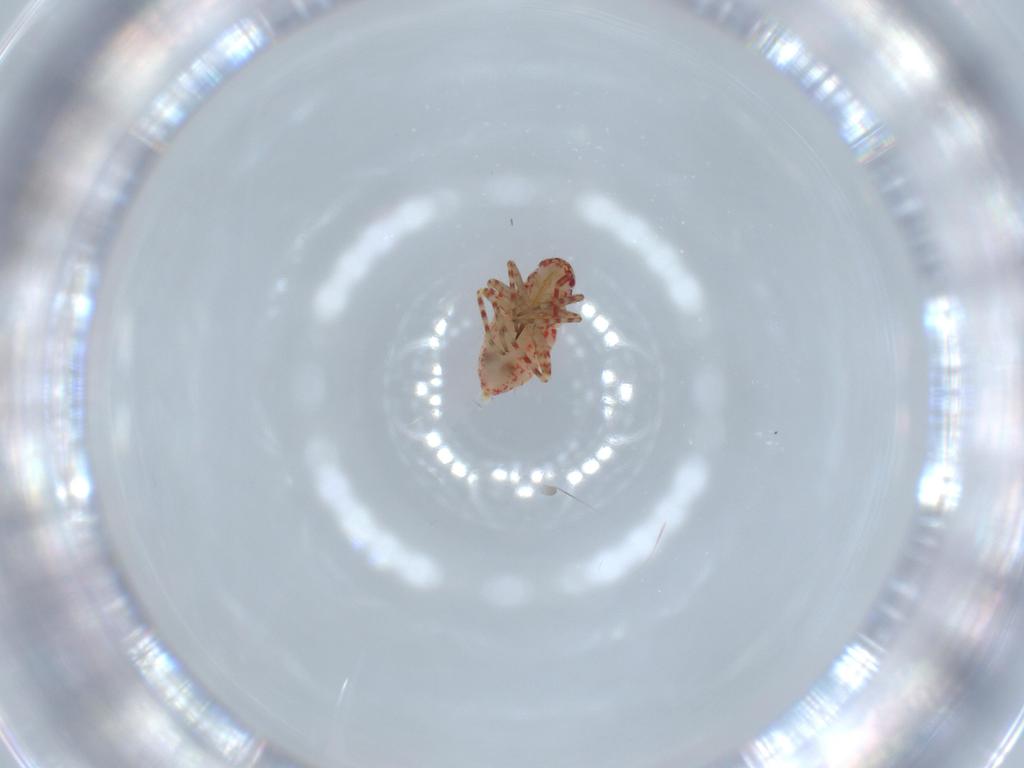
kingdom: Animalia
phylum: Arthropoda
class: Insecta
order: Hemiptera
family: Miridae
